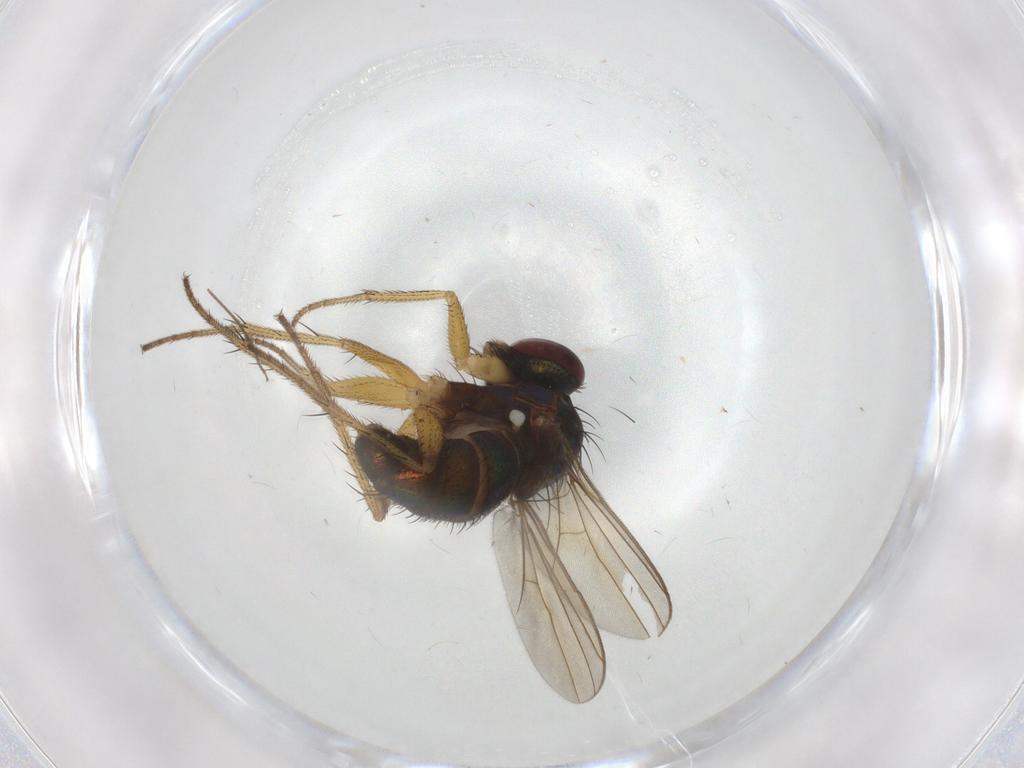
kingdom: Animalia
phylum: Arthropoda
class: Insecta
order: Diptera
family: Dolichopodidae
